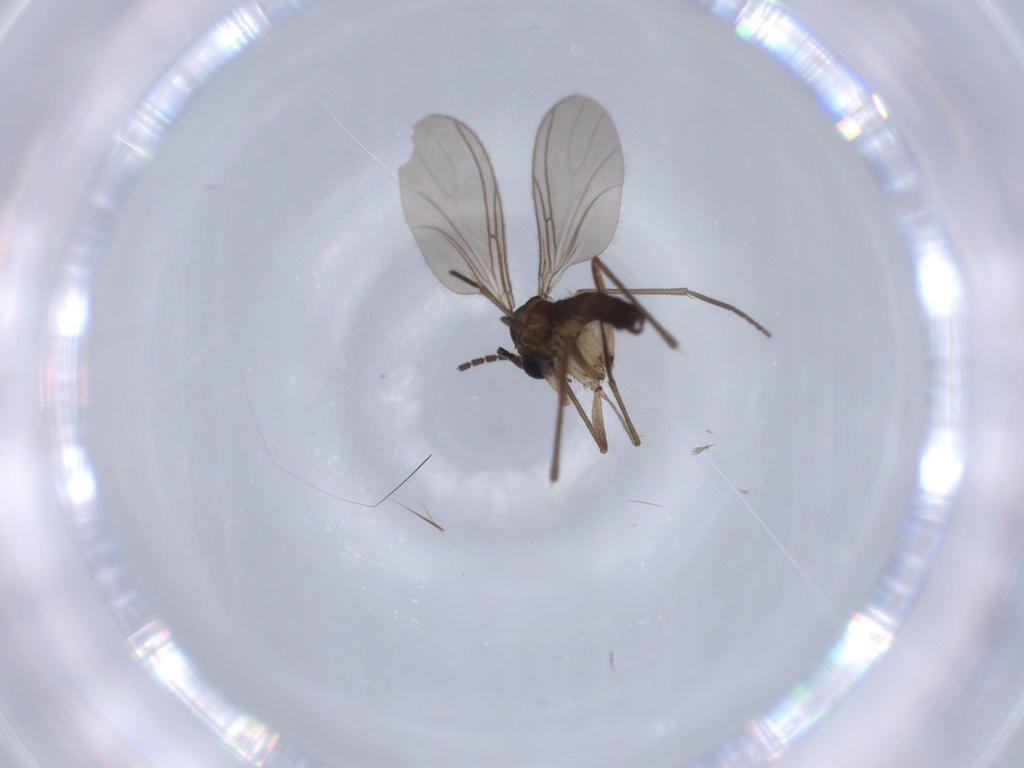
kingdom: Animalia
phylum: Arthropoda
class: Insecta
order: Diptera
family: Sciaridae
